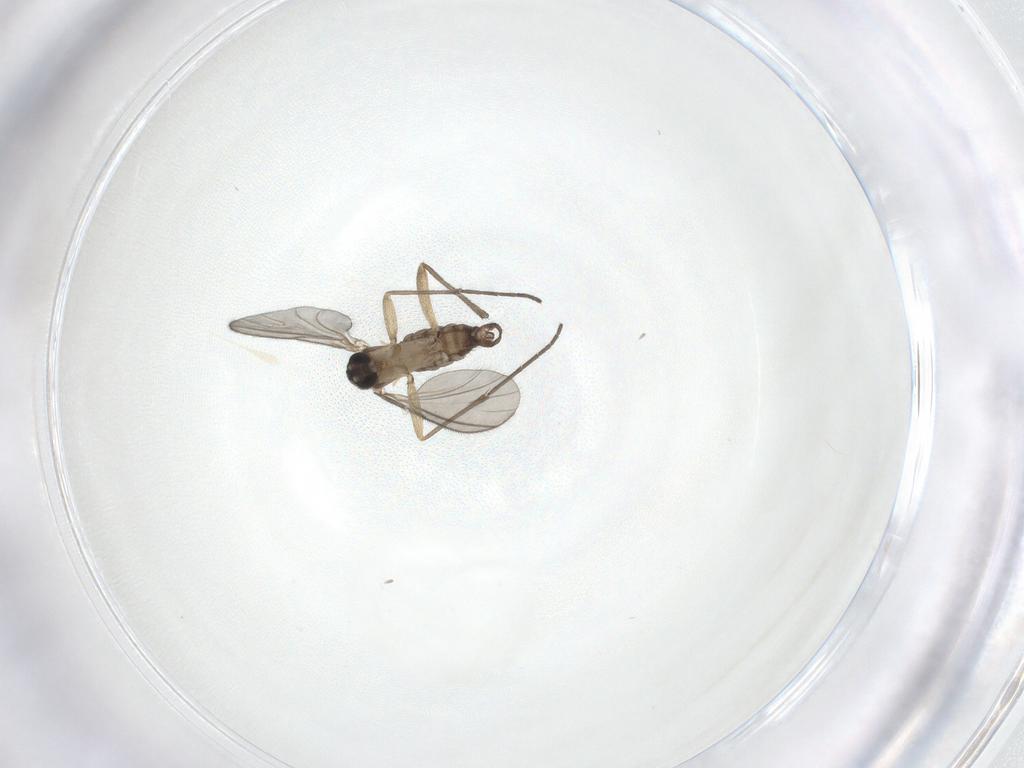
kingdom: Animalia
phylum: Arthropoda
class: Insecta
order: Diptera
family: Sciaridae
